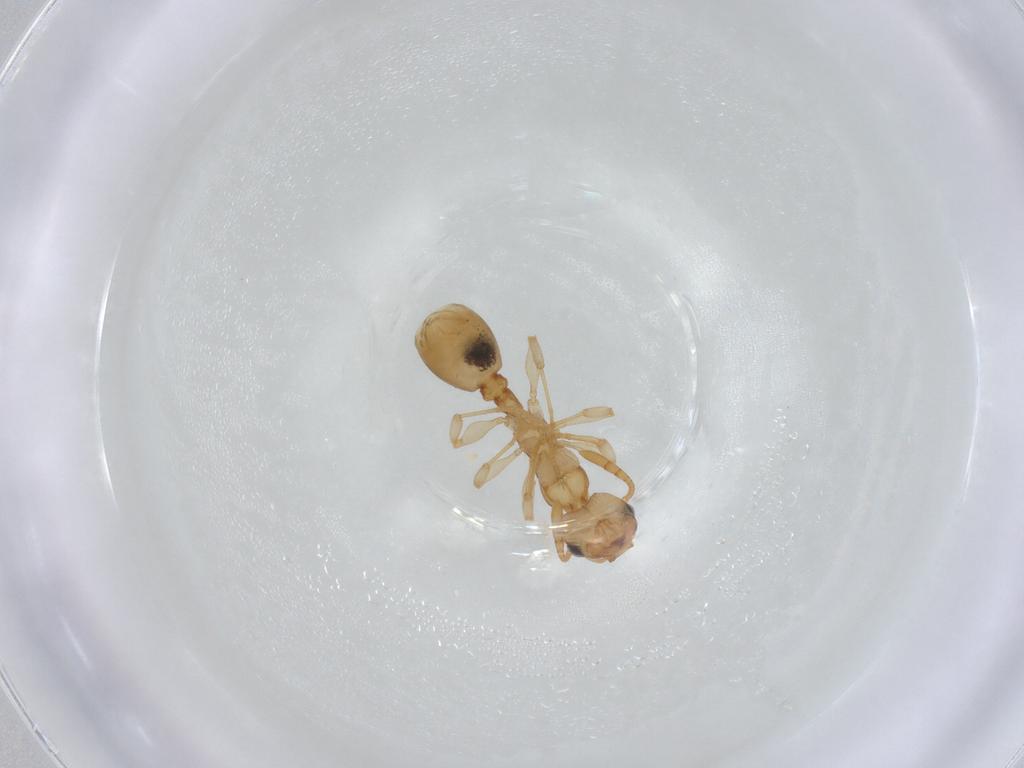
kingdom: Animalia
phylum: Arthropoda
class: Insecta
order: Hymenoptera
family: Formicidae
